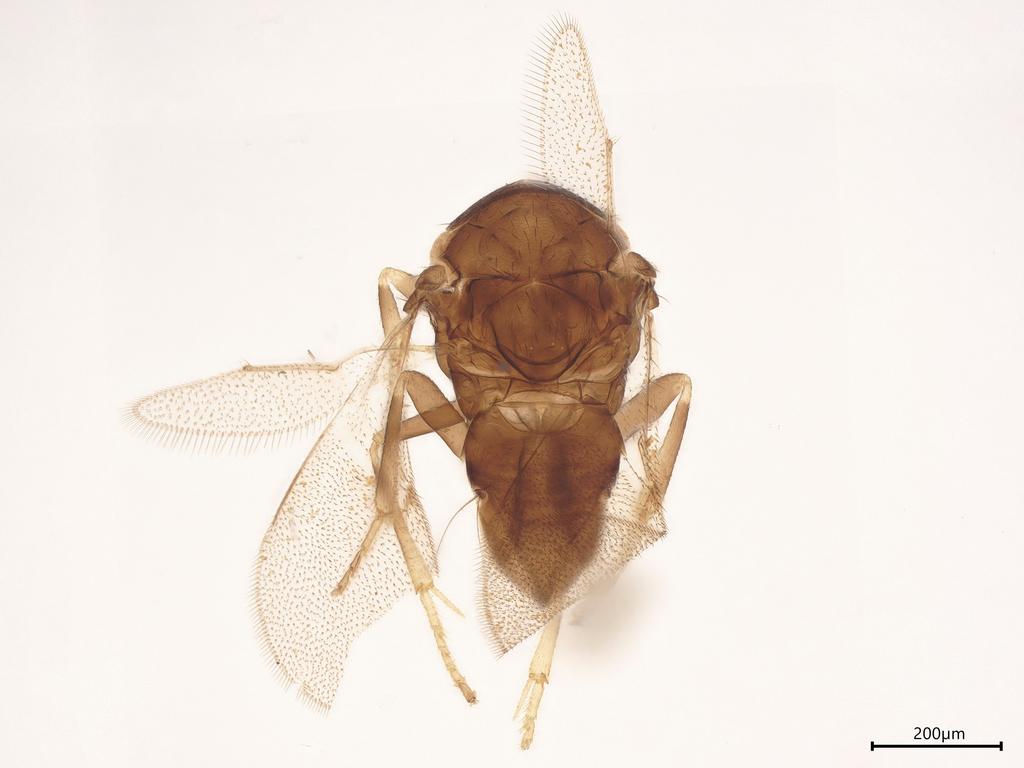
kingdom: Animalia
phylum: Arthropoda
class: Insecta
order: Hymenoptera
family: Encyrtidae
